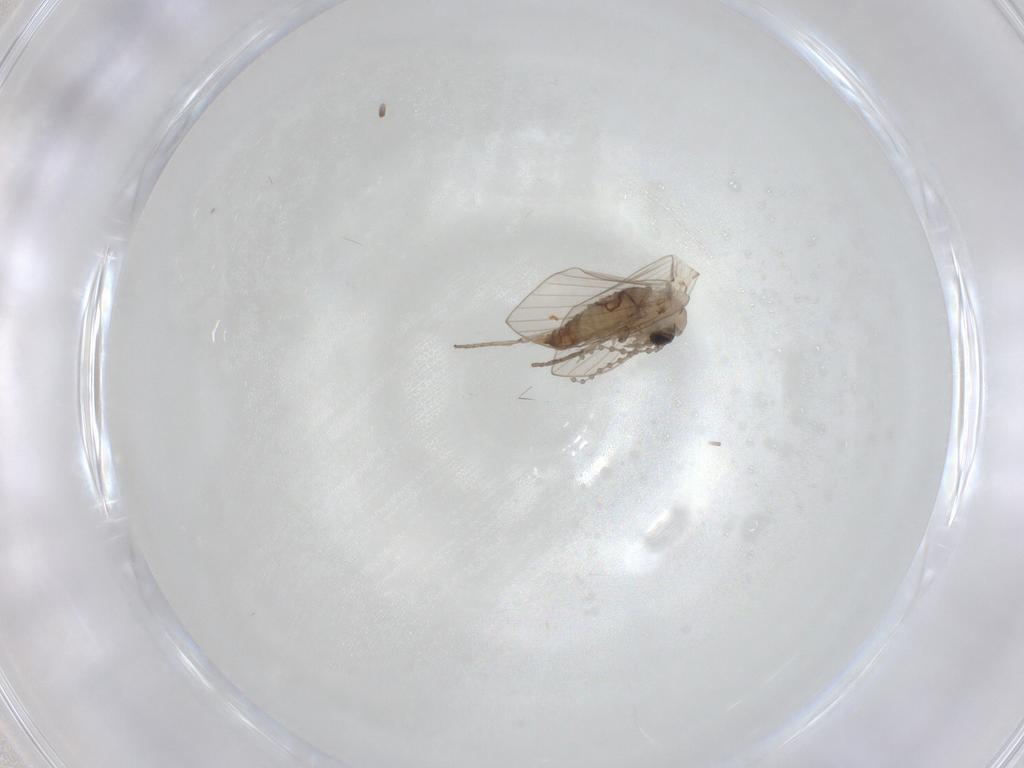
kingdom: Animalia
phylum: Arthropoda
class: Insecta
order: Diptera
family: Psychodidae
